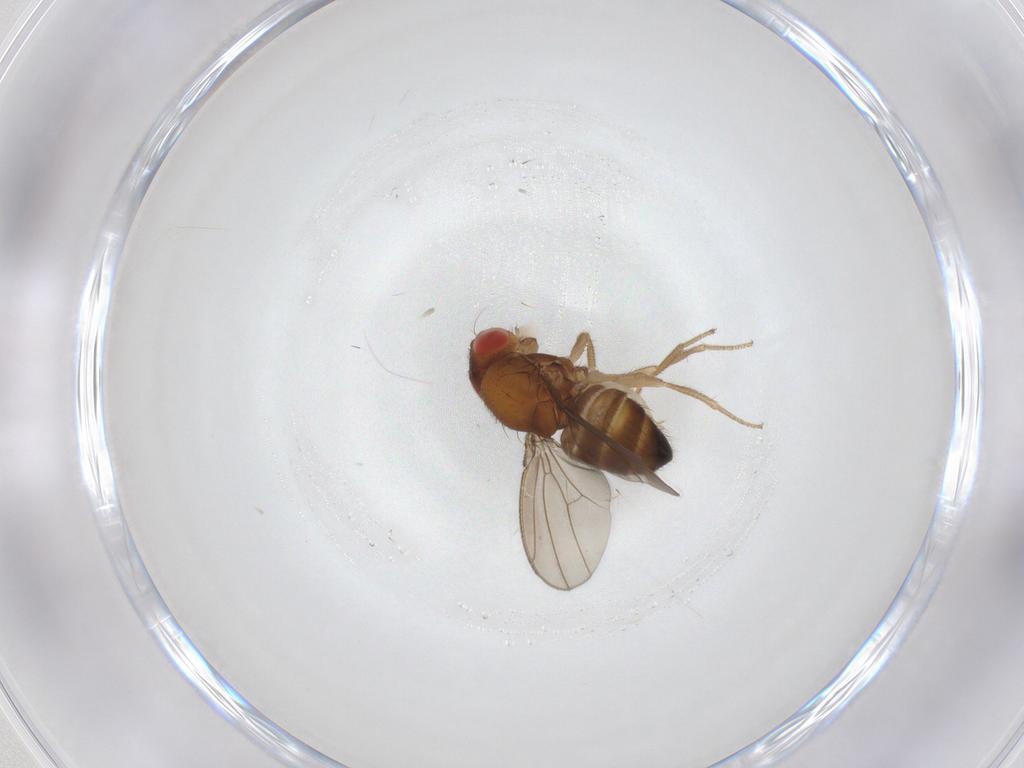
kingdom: Animalia
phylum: Arthropoda
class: Insecta
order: Diptera
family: Drosophilidae
